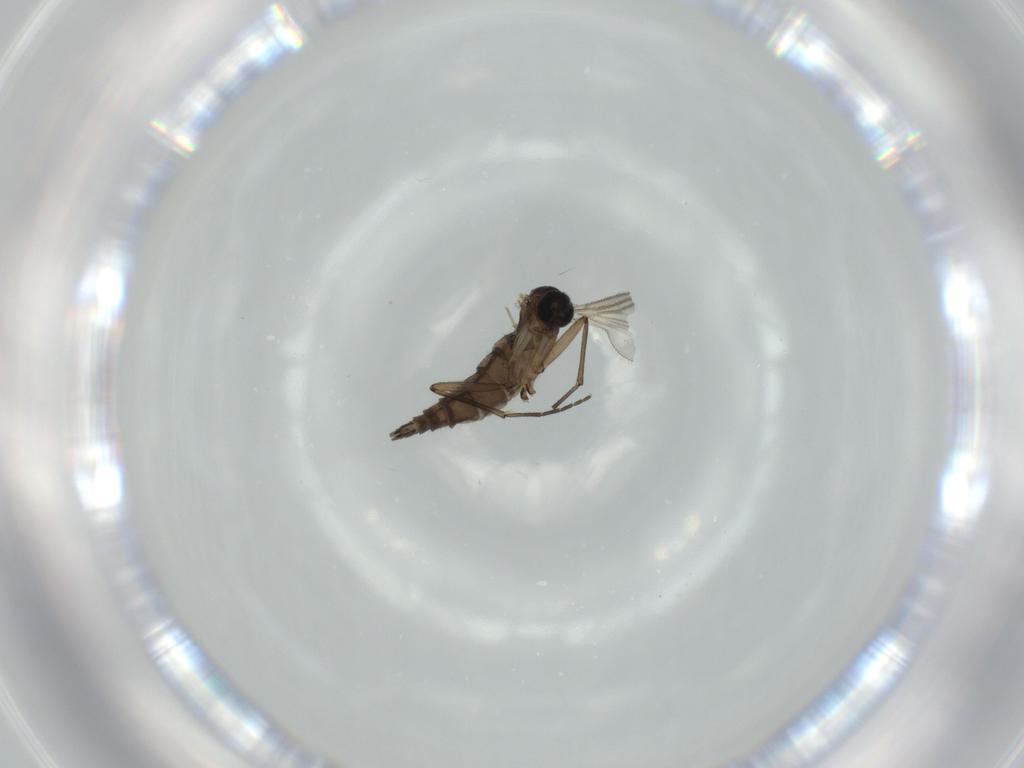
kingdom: Animalia
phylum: Arthropoda
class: Insecta
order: Diptera
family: Sciaridae
